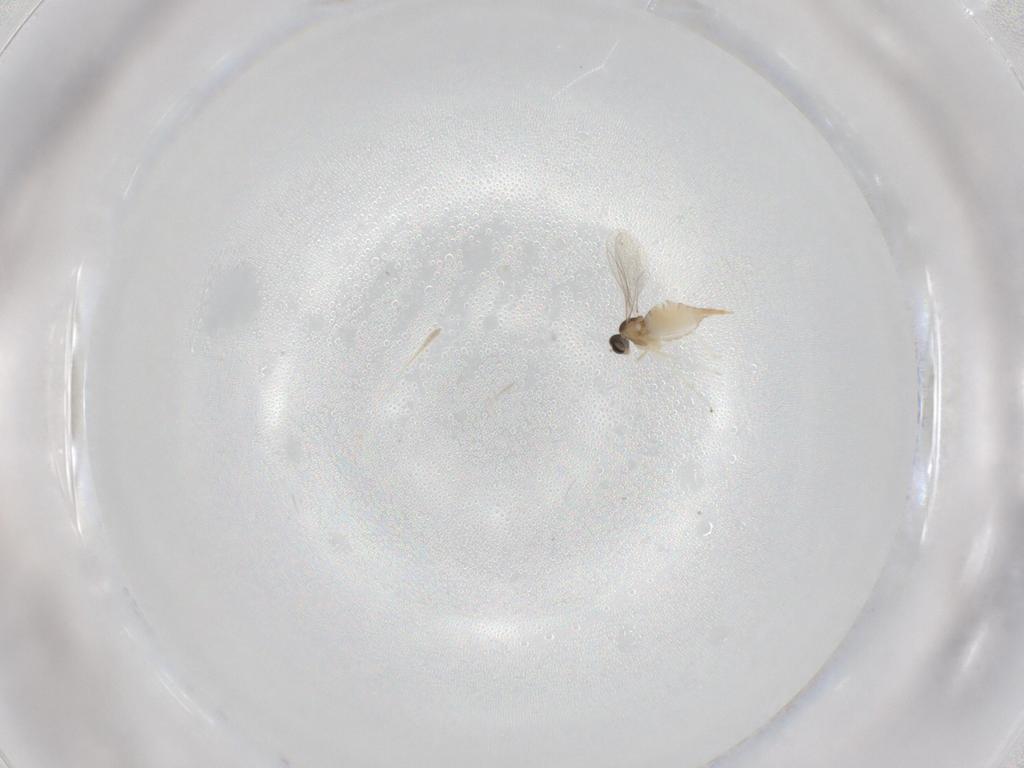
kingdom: Animalia
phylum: Arthropoda
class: Insecta
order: Diptera
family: Cecidomyiidae
